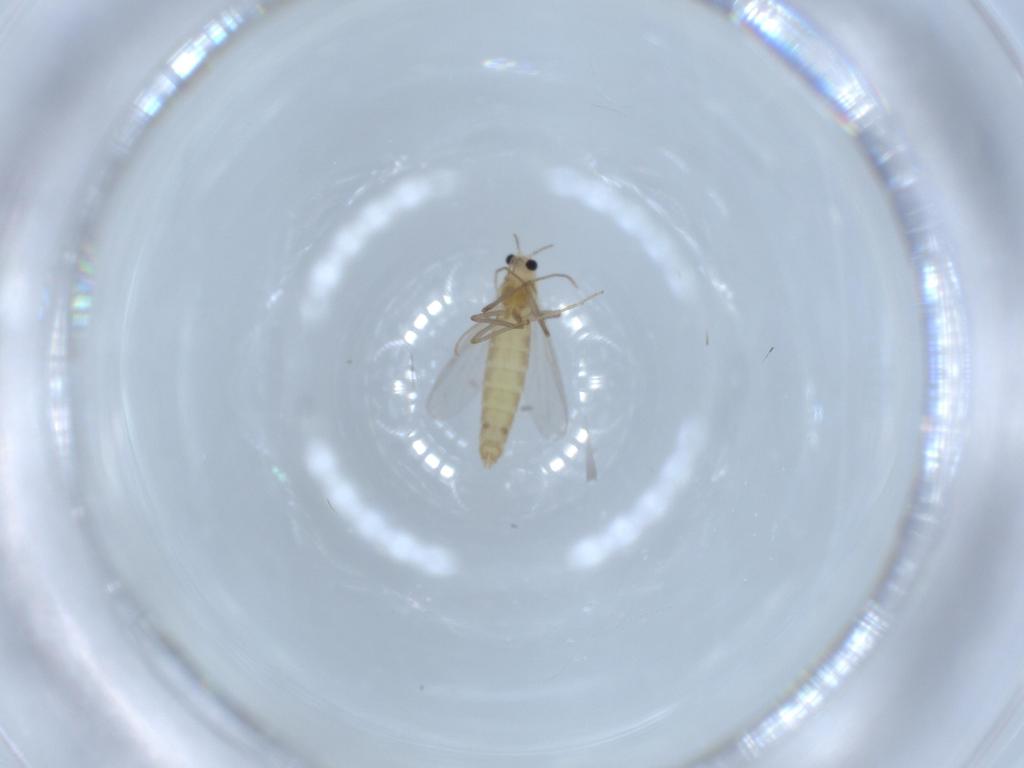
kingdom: Animalia
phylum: Arthropoda
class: Insecta
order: Diptera
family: Chironomidae
